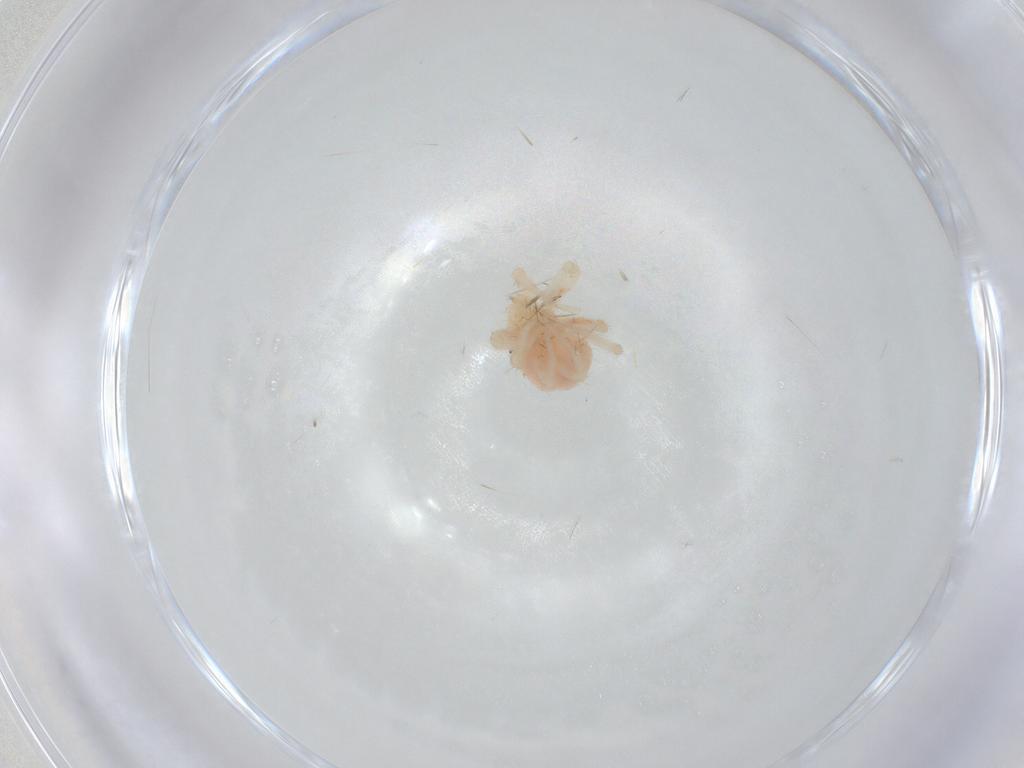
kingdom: Animalia
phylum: Arthropoda
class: Arachnida
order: Trombidiformes
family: Anystidae
